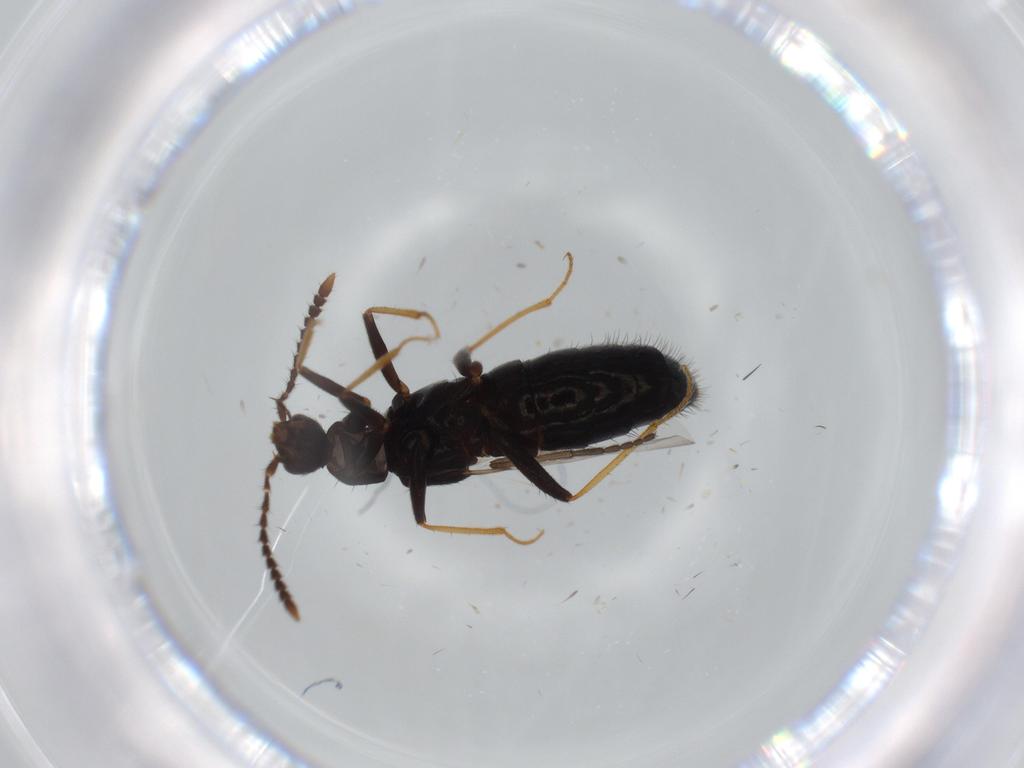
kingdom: Animalia
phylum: Arthropoda
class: Insecta
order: Coleoptera
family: Staphylinidae
